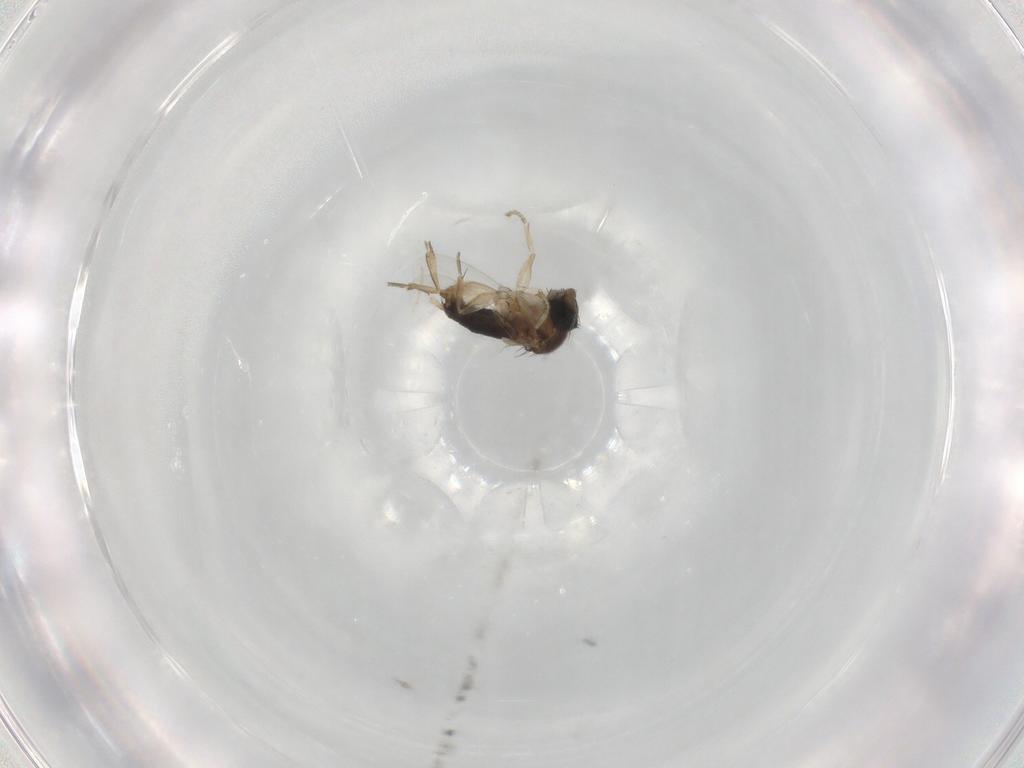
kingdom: Animalia
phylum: Arthropoda
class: Insecta
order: Diptera
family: Phoridae
